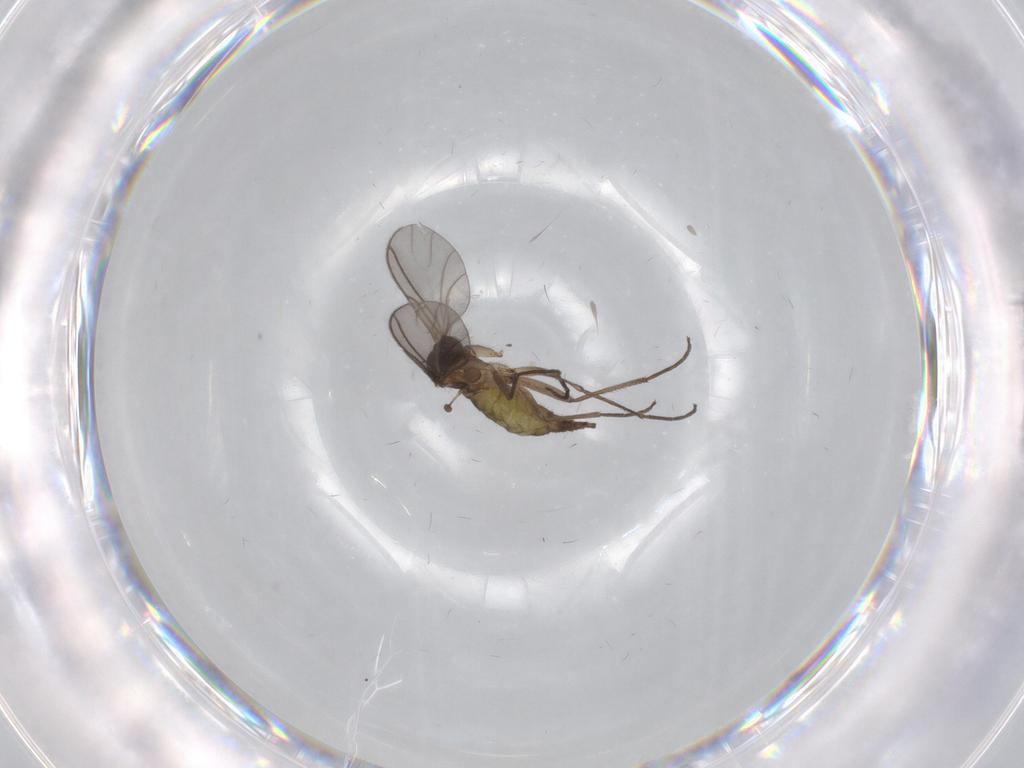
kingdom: Animalia
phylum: Arthropoda
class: Insecta
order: Diptera
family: Sciaridae
